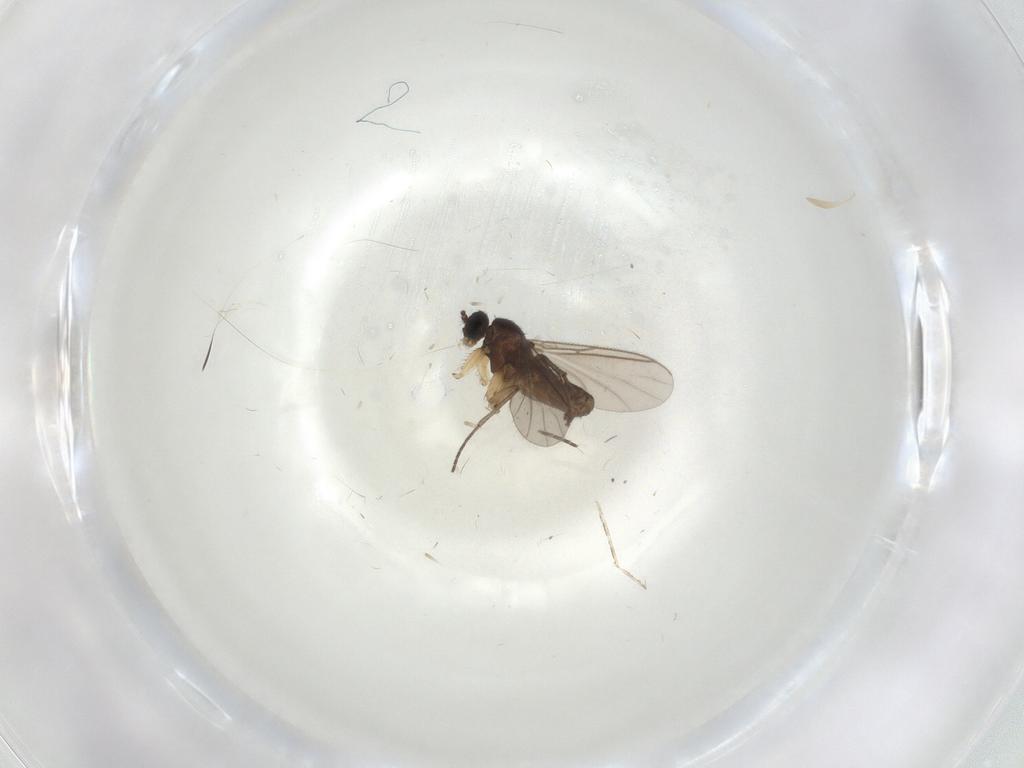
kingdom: Animalia
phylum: Arthropoda
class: Insecta
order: Diptera
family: Sciaridae
